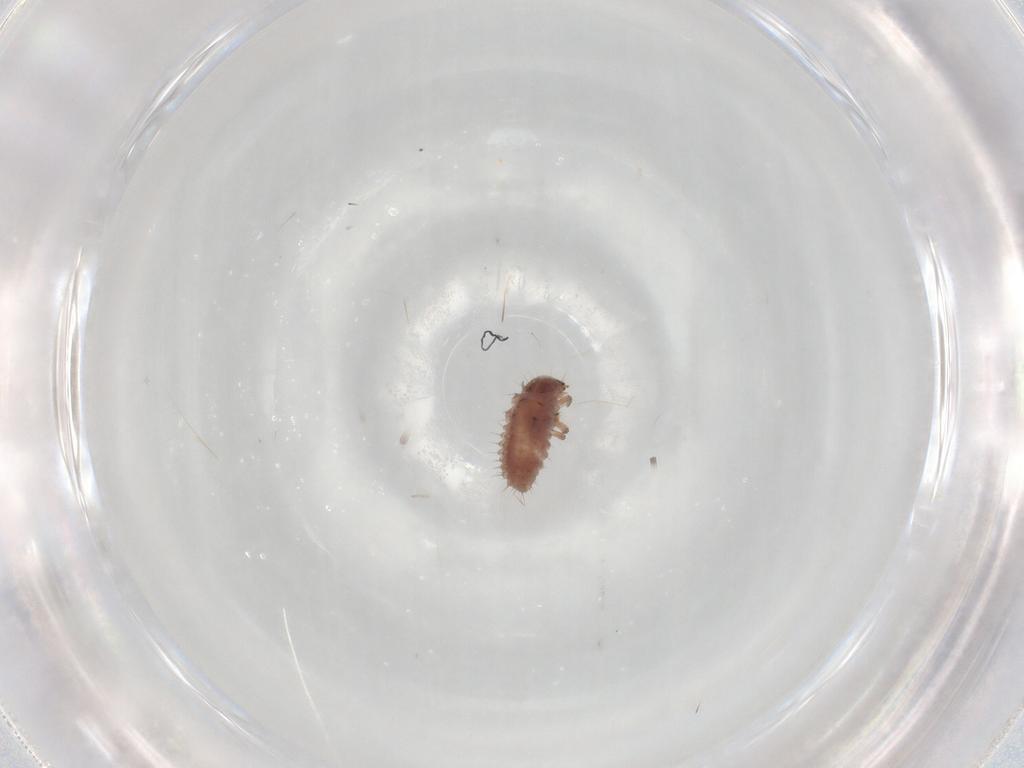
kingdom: Animalia
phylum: Arthropoda
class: Insecta
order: Coleoptera
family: Coccinellidae
